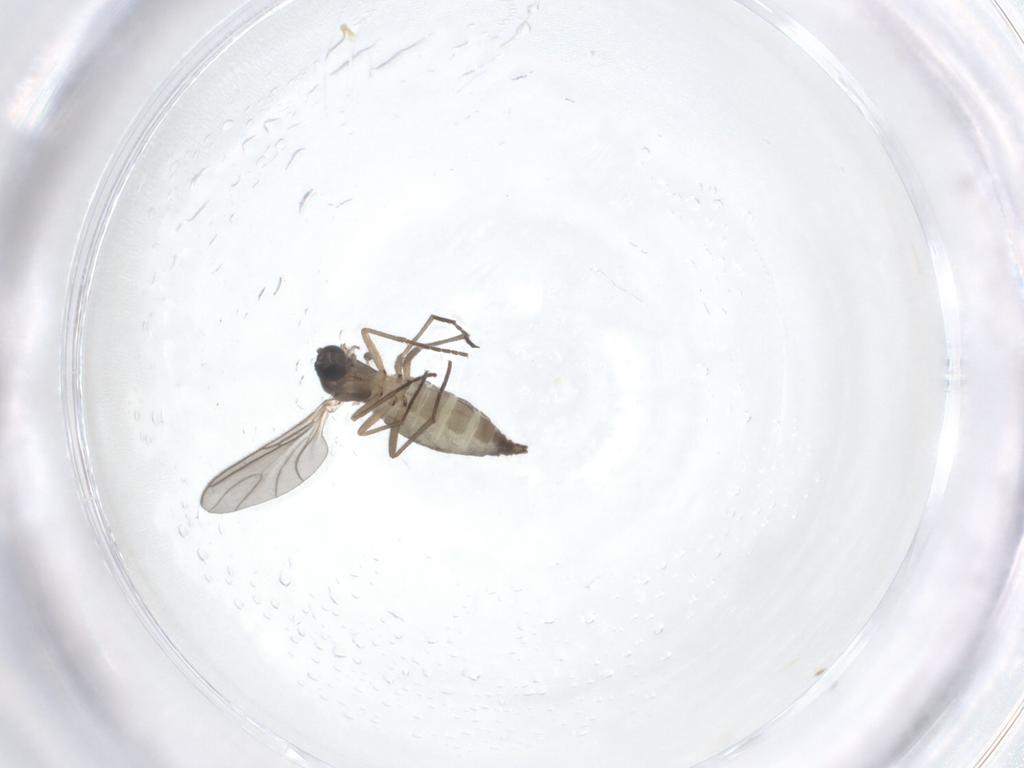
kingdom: Animalia
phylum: Arthropoda
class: Insecta
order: Diptera
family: Sciaridae
